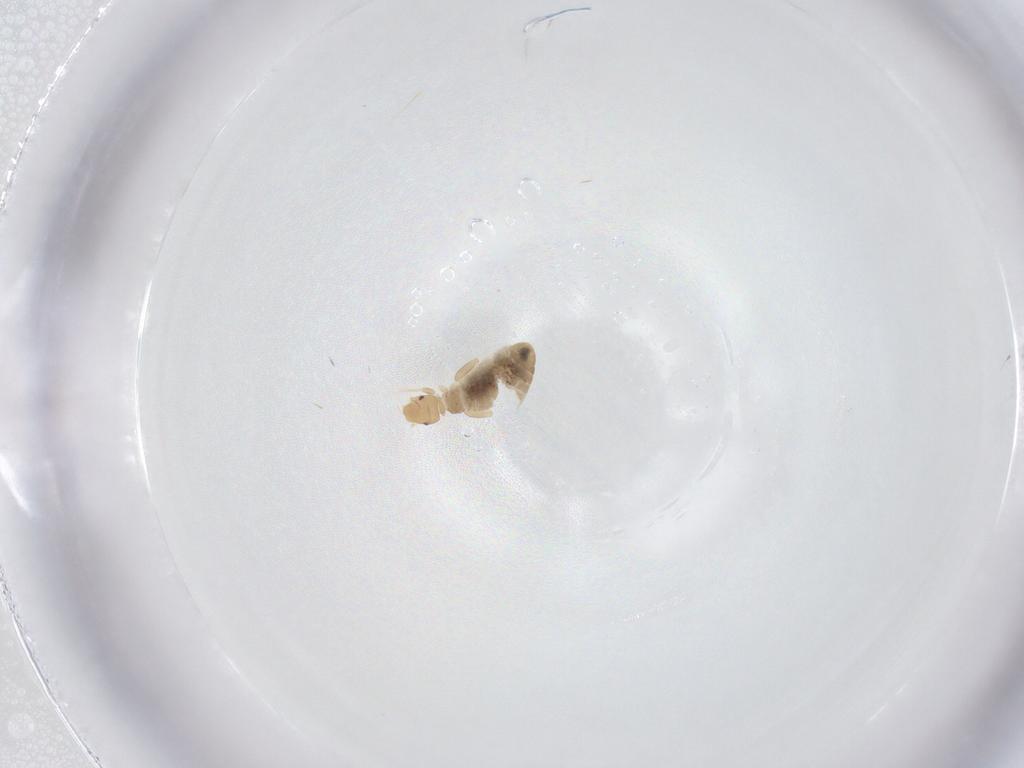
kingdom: Animalia
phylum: Arthropoda
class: Insecta
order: Psocodea
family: Liposcelididae
